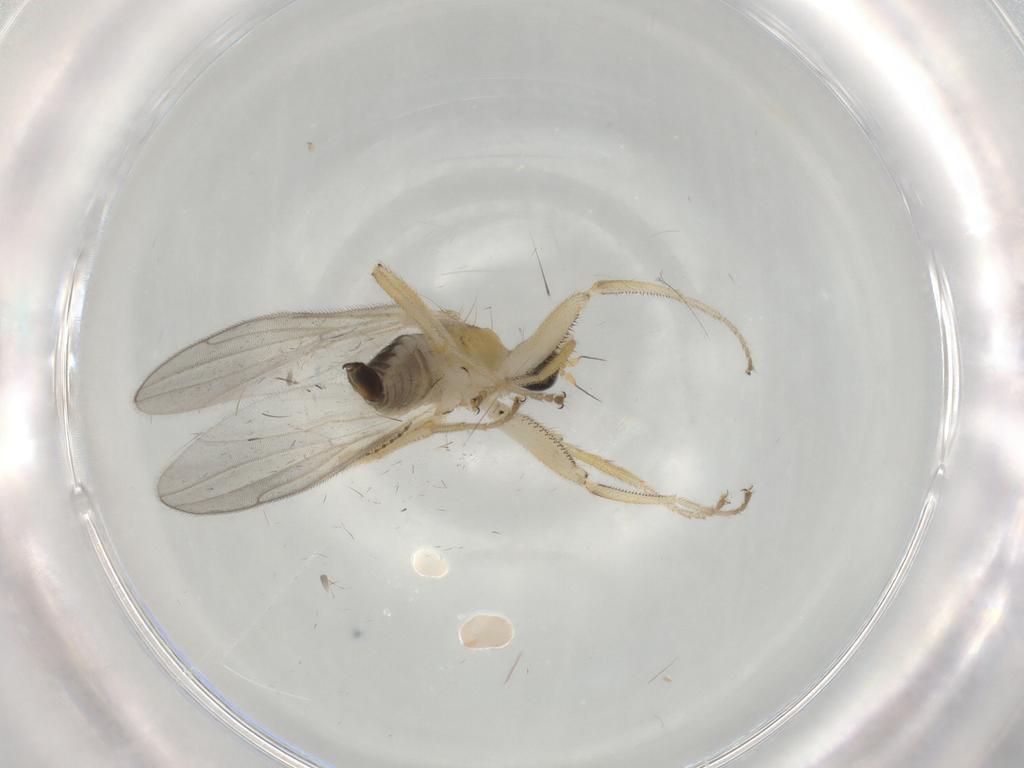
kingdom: Animalia
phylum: Arthropoda
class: Insecta
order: Diptera
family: Hybotidae
